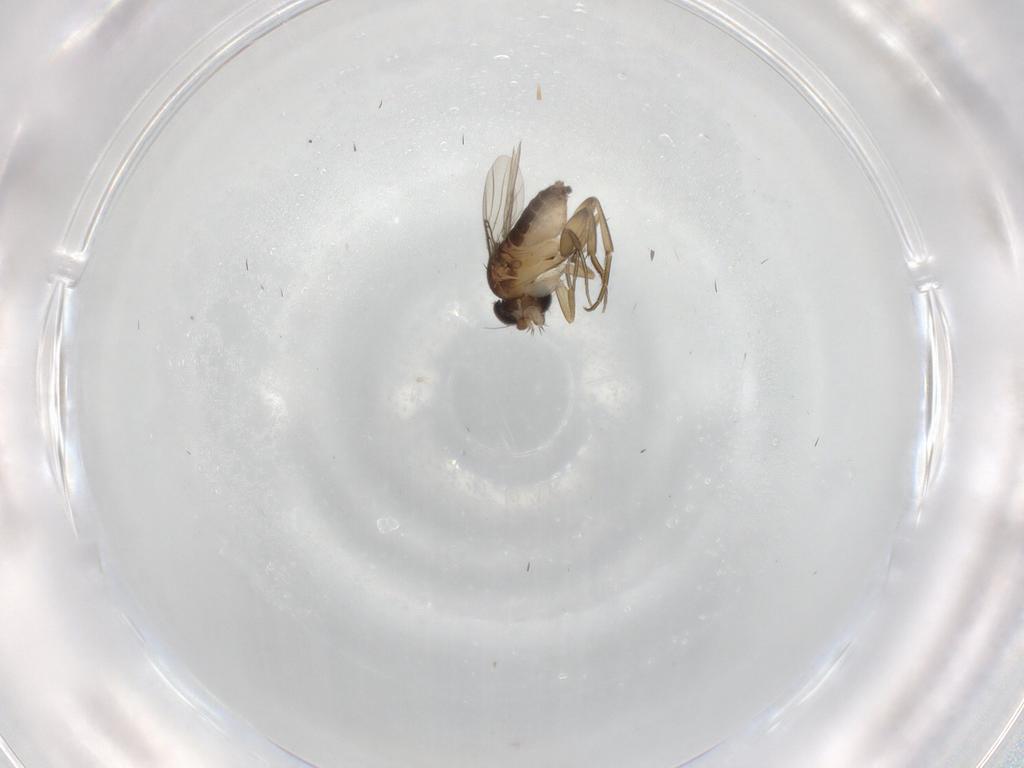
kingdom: Animalia
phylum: Arthropoda
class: Insecta
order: Diptera
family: Phoridae
